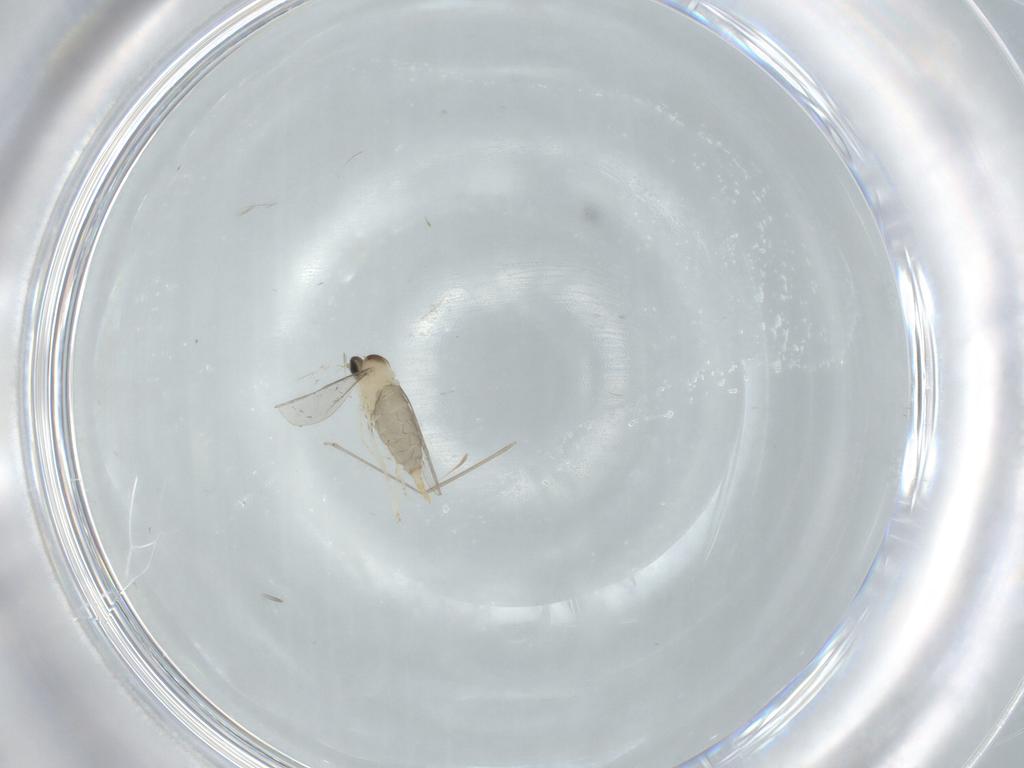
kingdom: Animalia
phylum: Arthropoda
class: Insecta
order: Diptera
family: Cecidomyiidae
